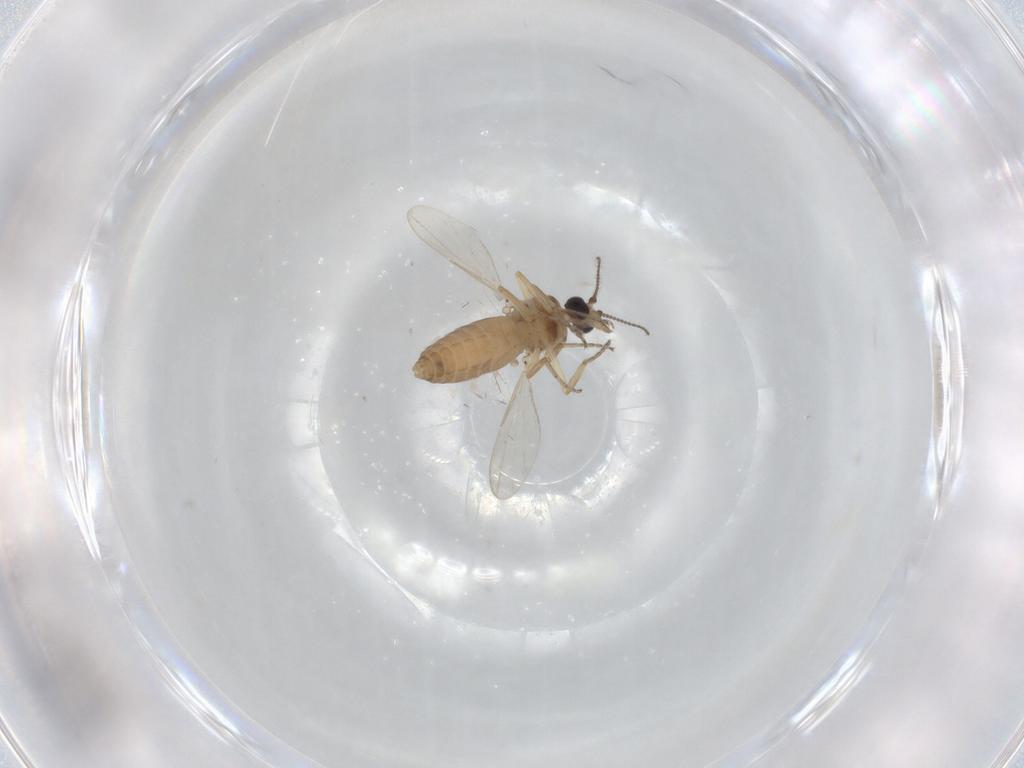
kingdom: Animalia
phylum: Arthropoda
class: Insecta
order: Diptera
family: Ceratopogonidae
